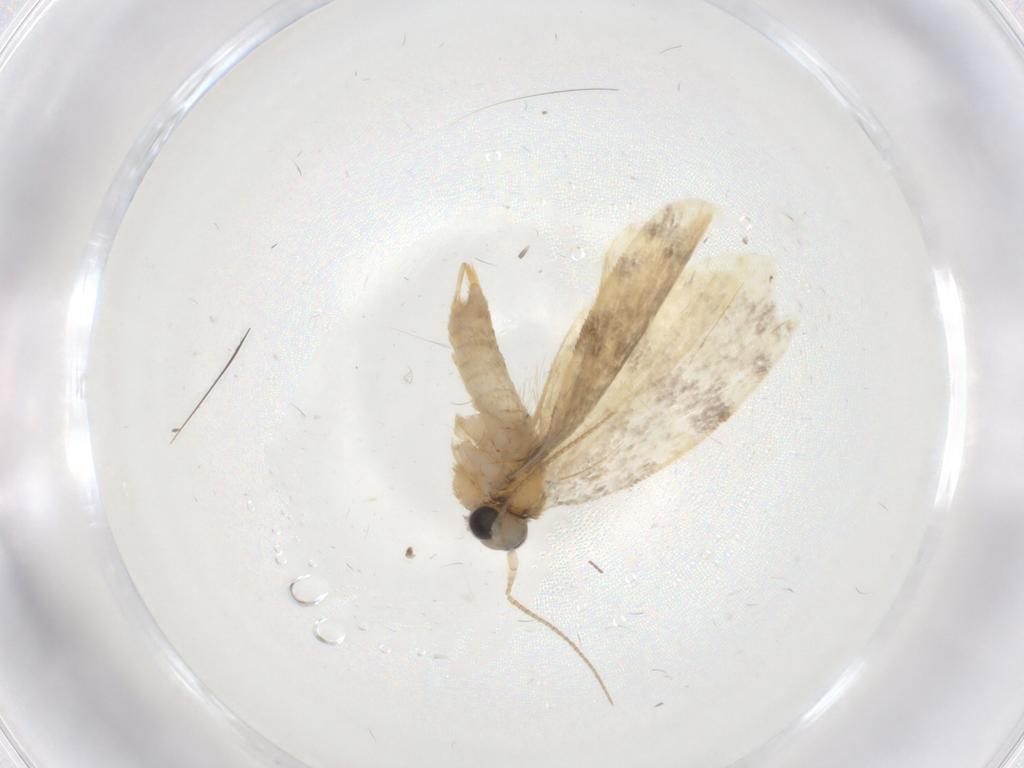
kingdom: Animalia
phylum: Arthropoda
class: Insecta
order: Lepidoptera
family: Psychidae
